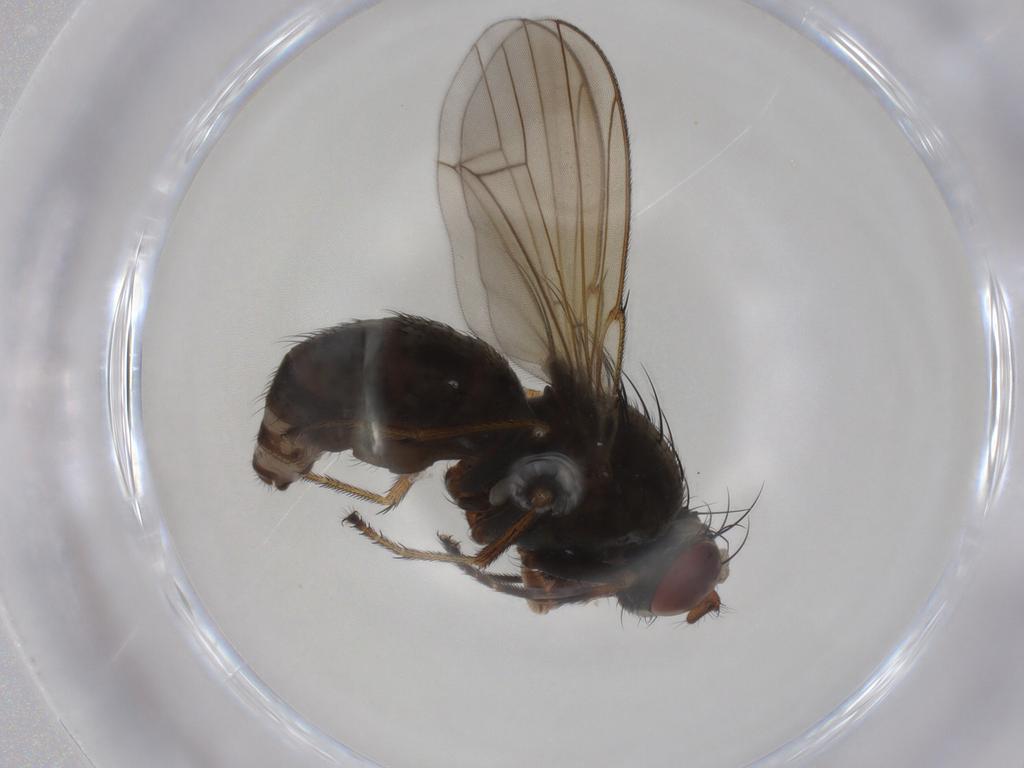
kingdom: Animalia
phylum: Arthropoda
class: Insecta
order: Diptera
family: Ephydridae
